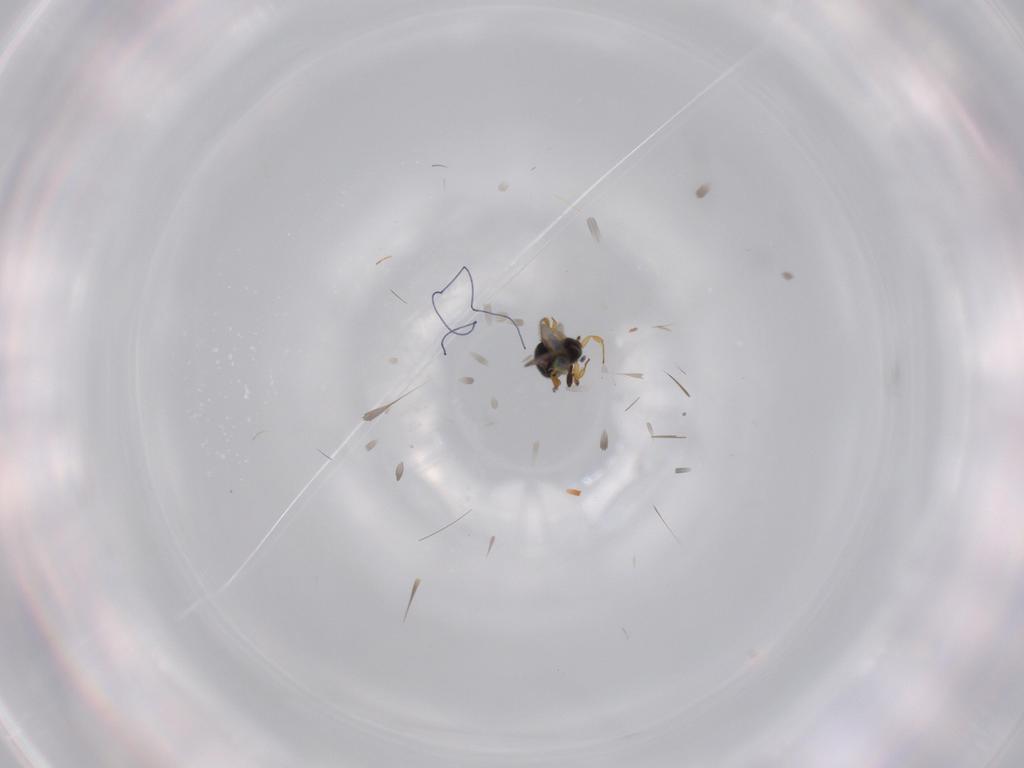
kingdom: Animalia
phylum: Arthropoda
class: Insecta
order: Hymenoptera
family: Scelionidae
